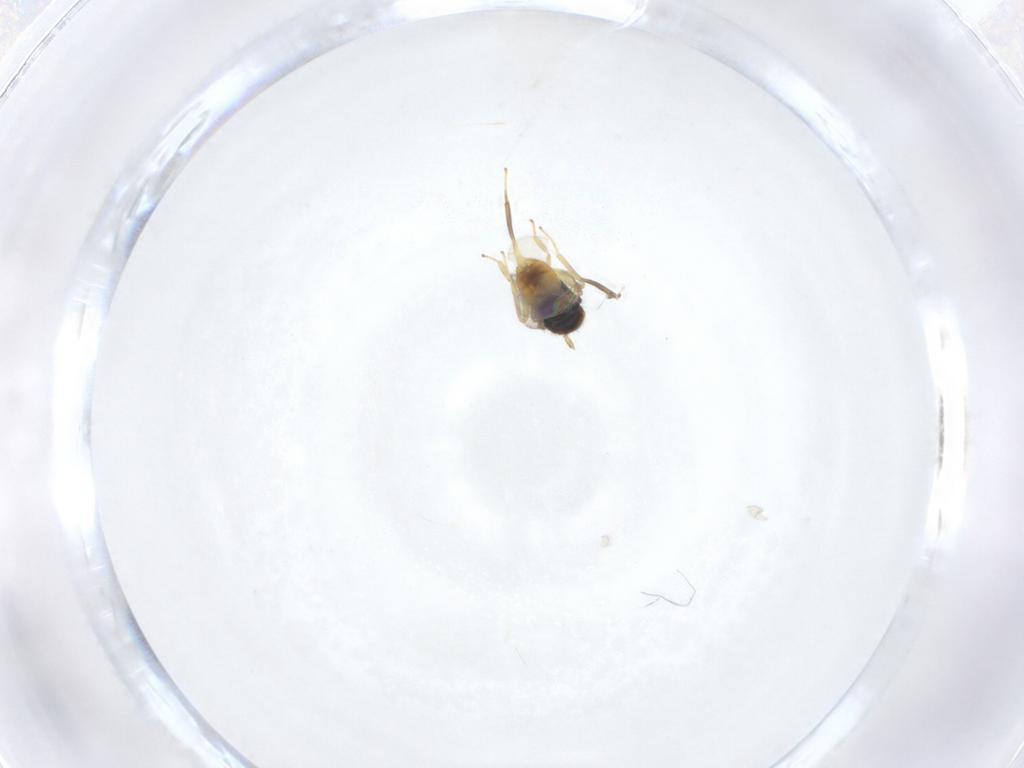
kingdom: Animalia
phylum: Arthropoda
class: Insecta
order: Hymenoptera
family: Aphelinidae
